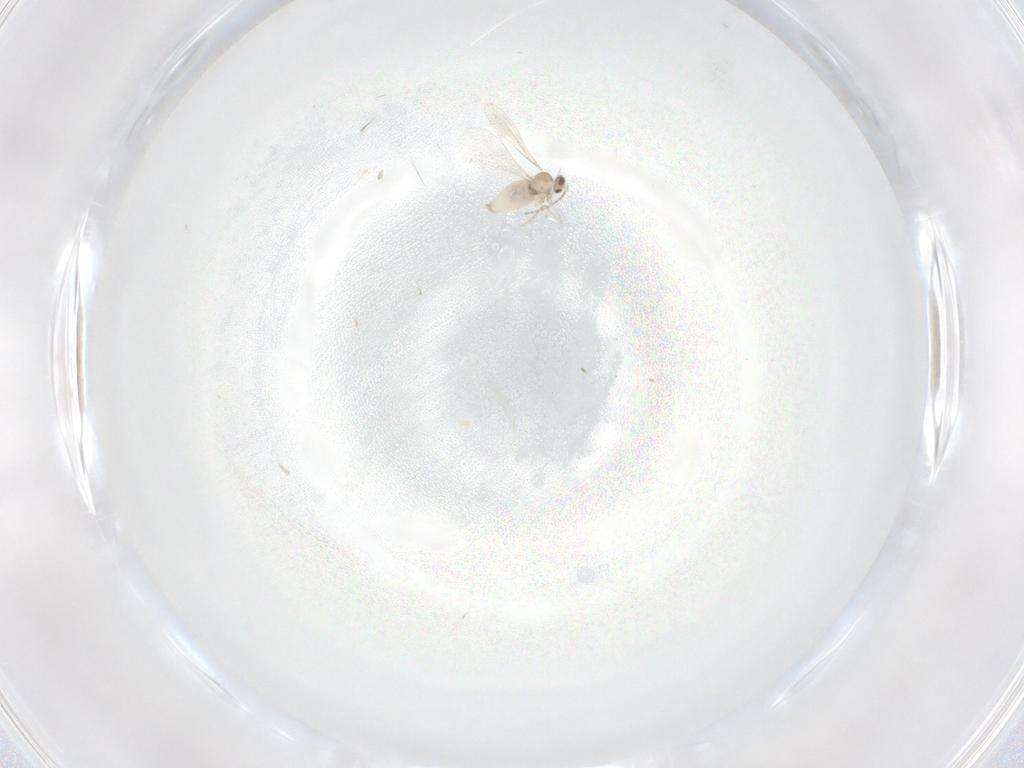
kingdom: Animalia
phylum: Arthropoda
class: Insecta
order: Diptera
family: Cecidomyiidae
